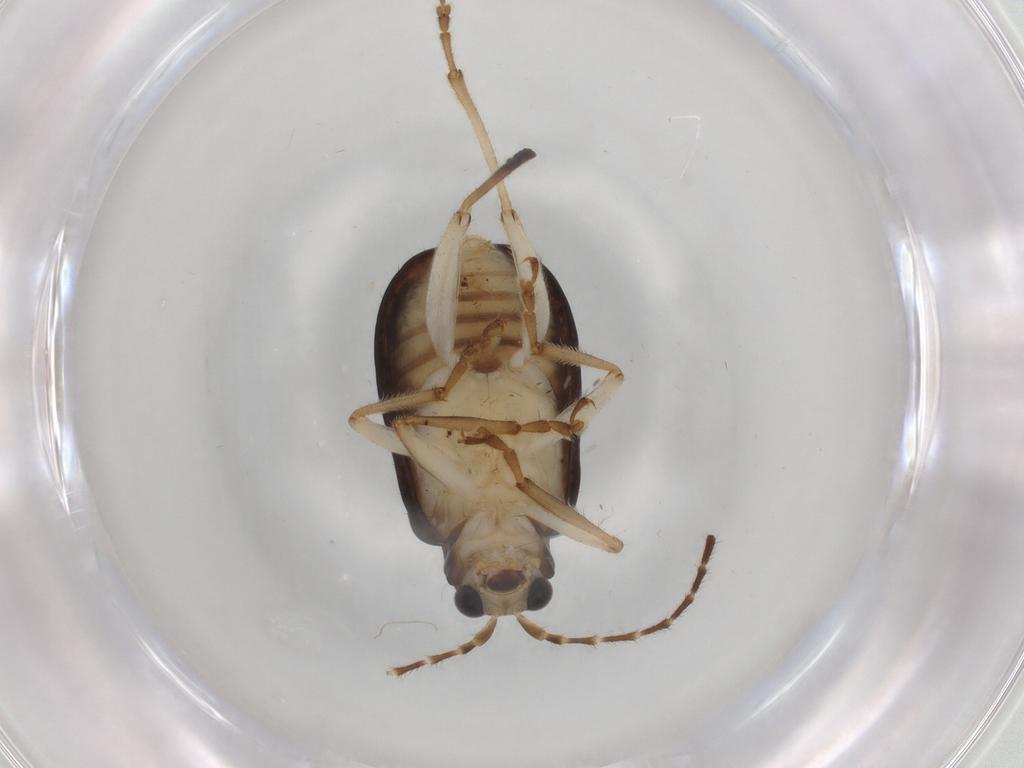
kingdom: Animalia
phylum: Arthropoda
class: Insecta
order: Coleoptera
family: Chrysomelidae
